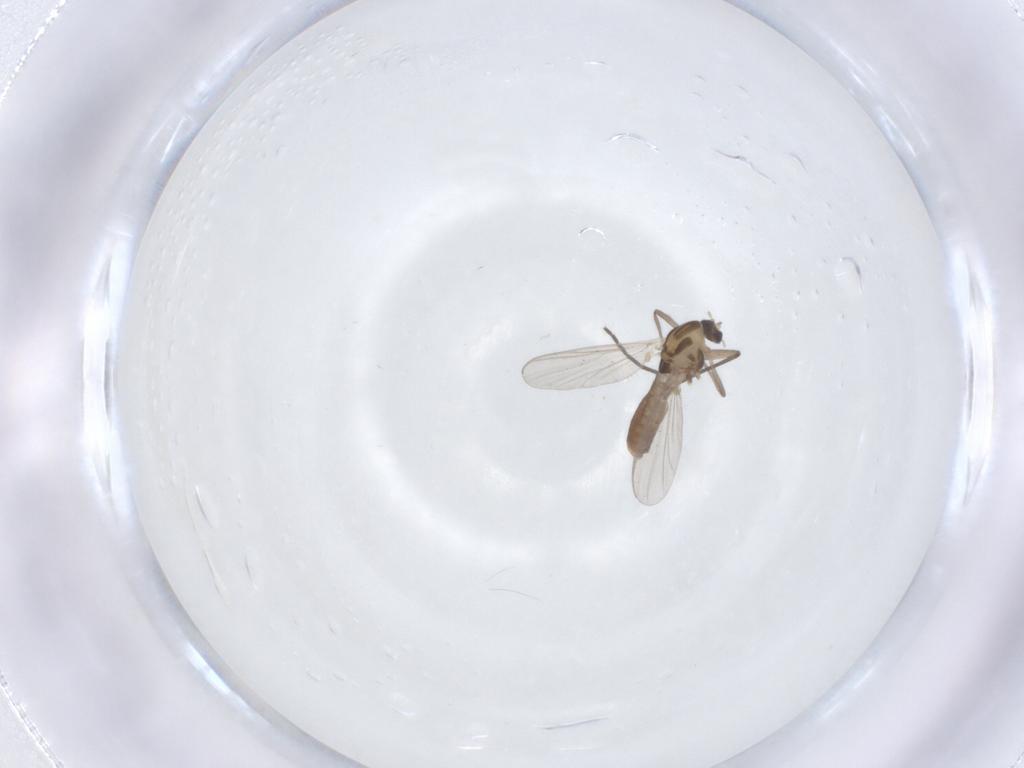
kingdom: Animalia
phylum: Arthropoda
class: Insecta
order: Diptera
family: Chironomidae
